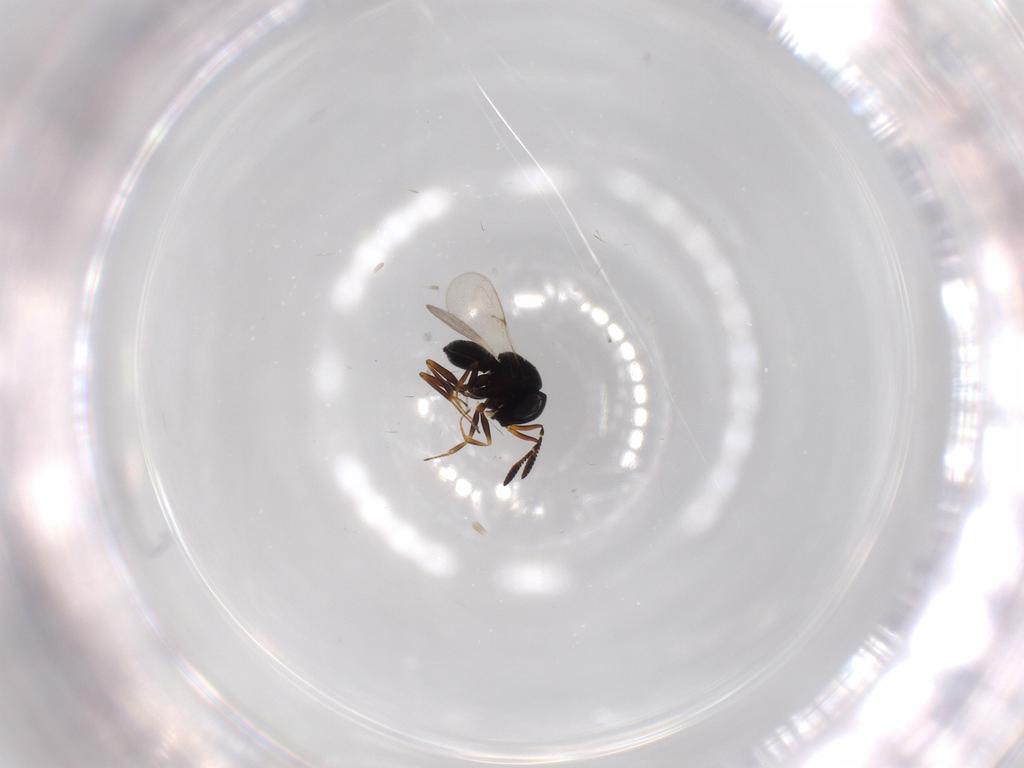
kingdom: Animalia
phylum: Arthropoda
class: Insecta
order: Hymenoptera
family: Scelionidae
